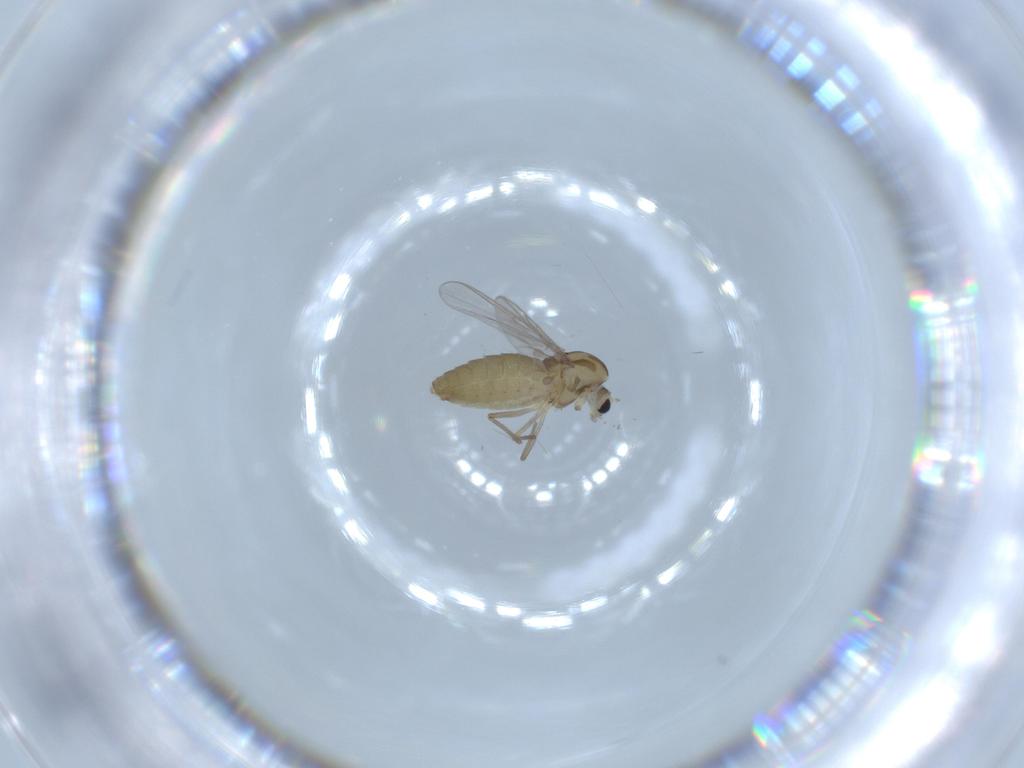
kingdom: Animalia
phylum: Arthropoda
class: Insecta
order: Diptera
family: Chironomidae
